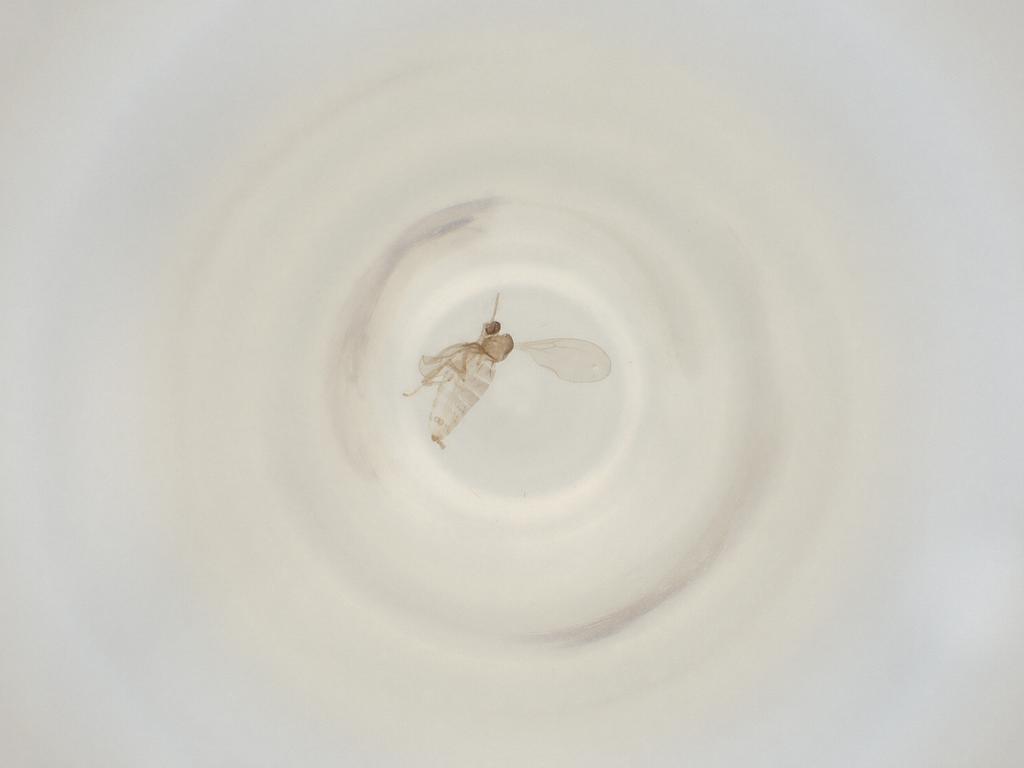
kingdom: Animalia
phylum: Arthropoda
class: Insecta
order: Diptera
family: Cecidomyiidae
